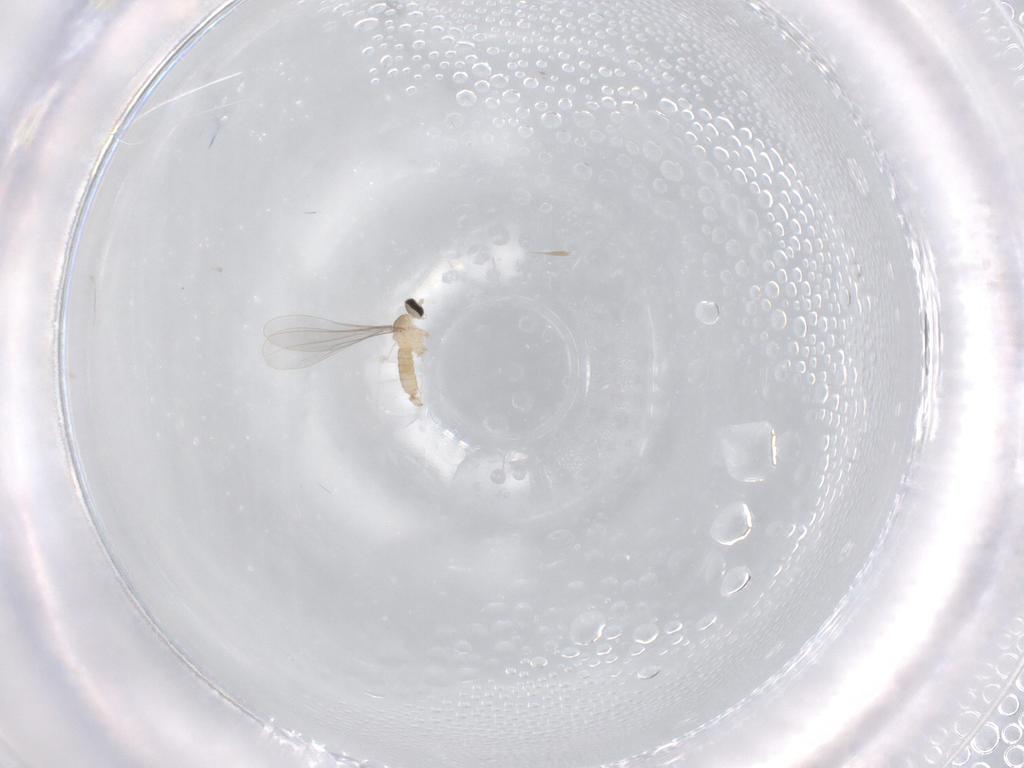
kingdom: Animalia
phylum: Arthropoda
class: Insecta
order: Diptera
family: Cecidomyiidae
